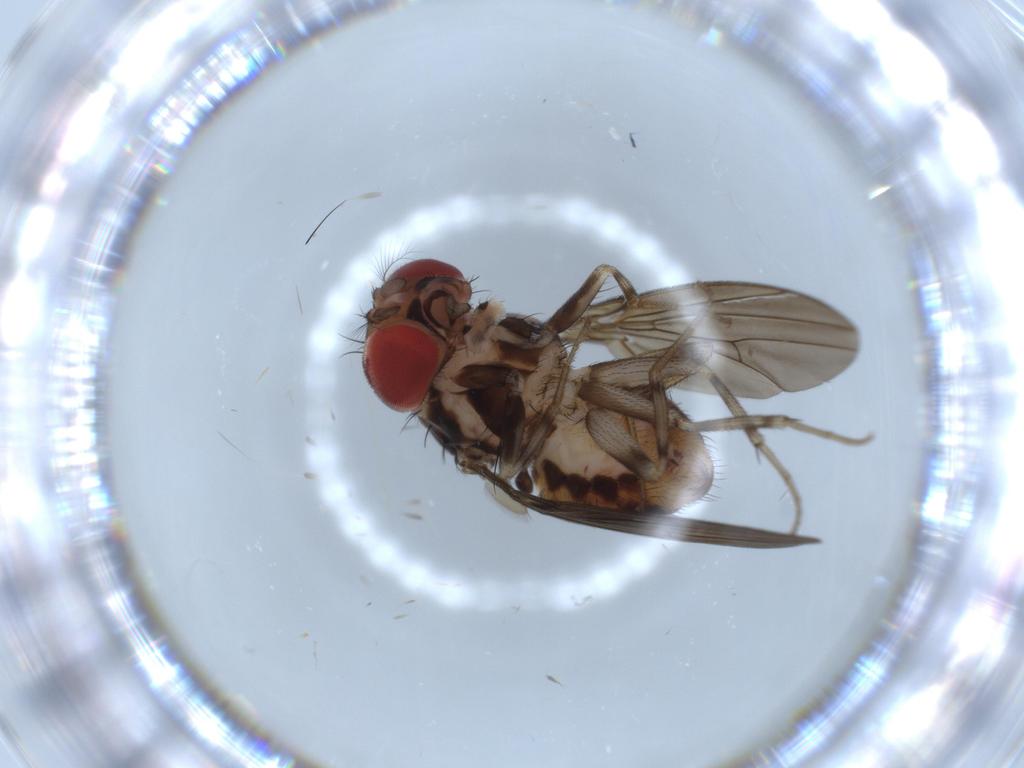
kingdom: Animalia
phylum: Arthropoda
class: Insecta
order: Diptera
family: Drosophilidae
